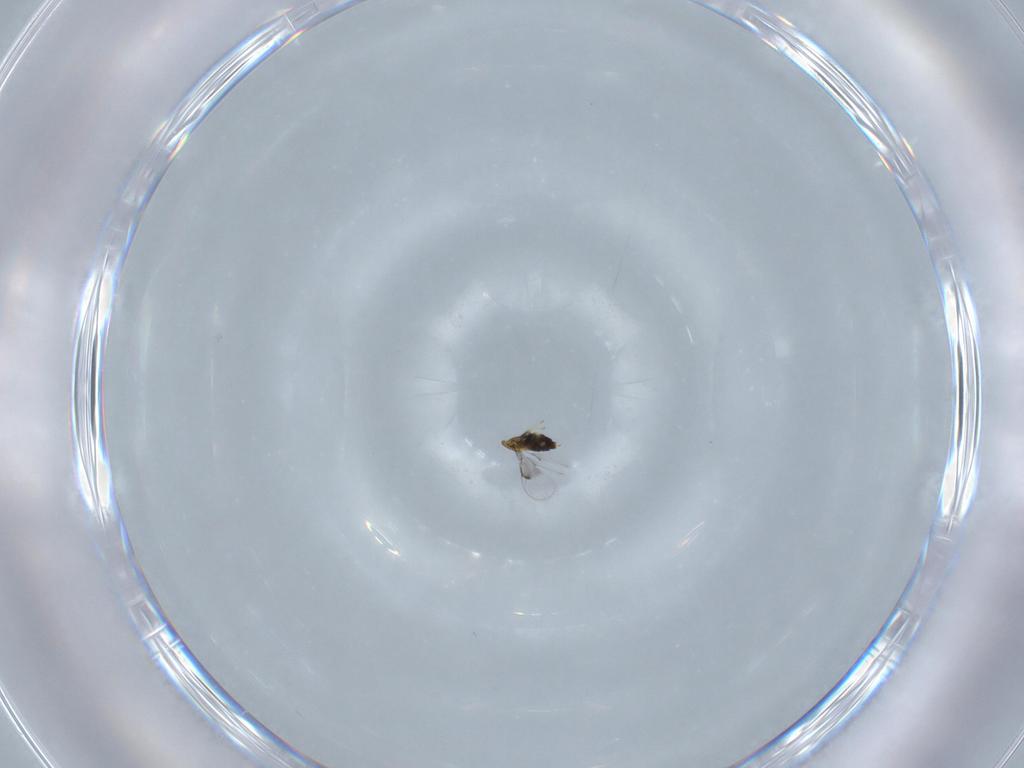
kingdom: Animalia
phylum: Arthropoda
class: Insecta
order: Hymenoptera
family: Trichogrammatidae
